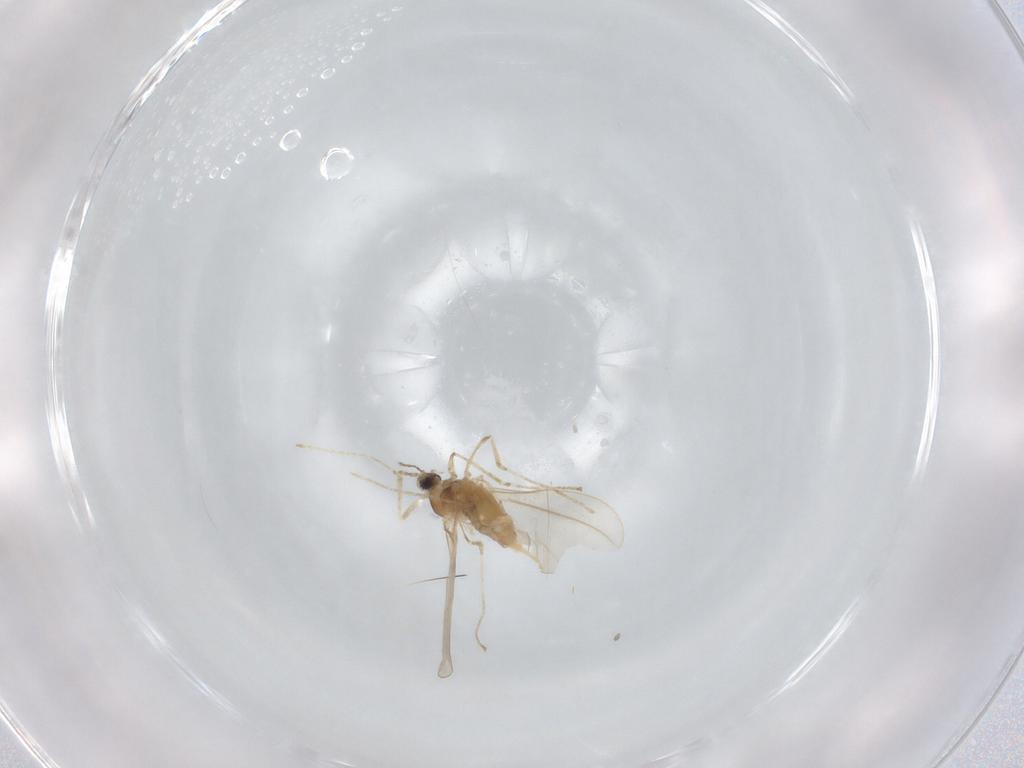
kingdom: Animalia
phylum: Arthropoda
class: Insecta
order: Diptera
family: Cecidomyiidae
